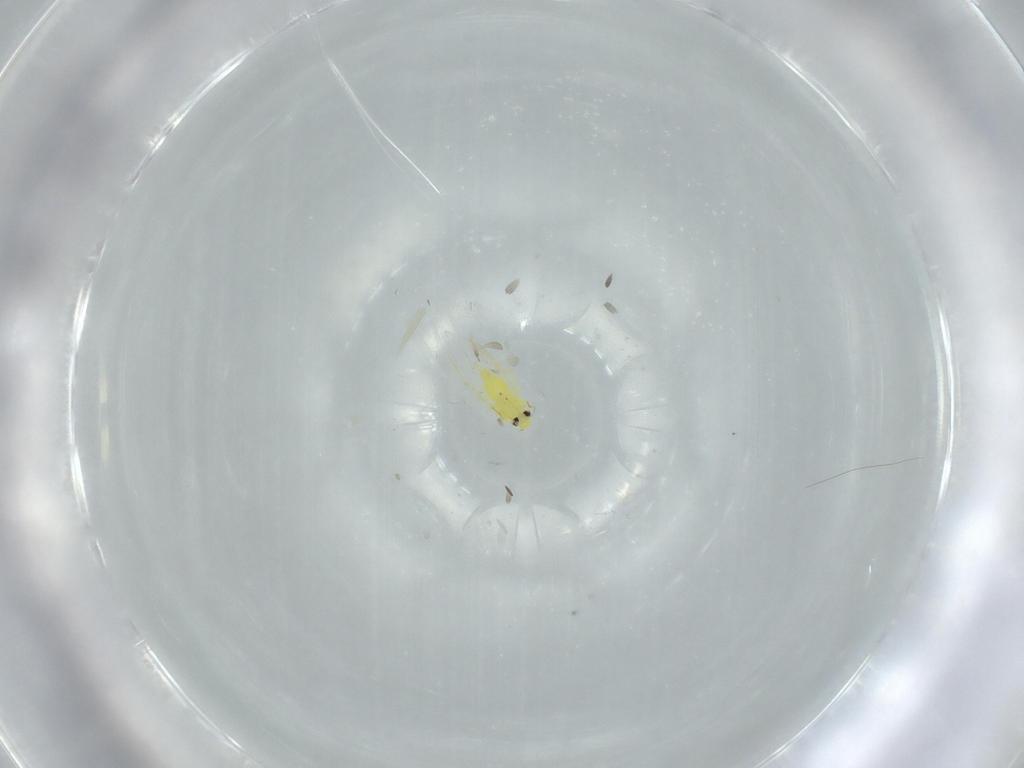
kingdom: Animalia
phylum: Arthropoda
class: Insecta
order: Hemiptera
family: Aleyrodidae
